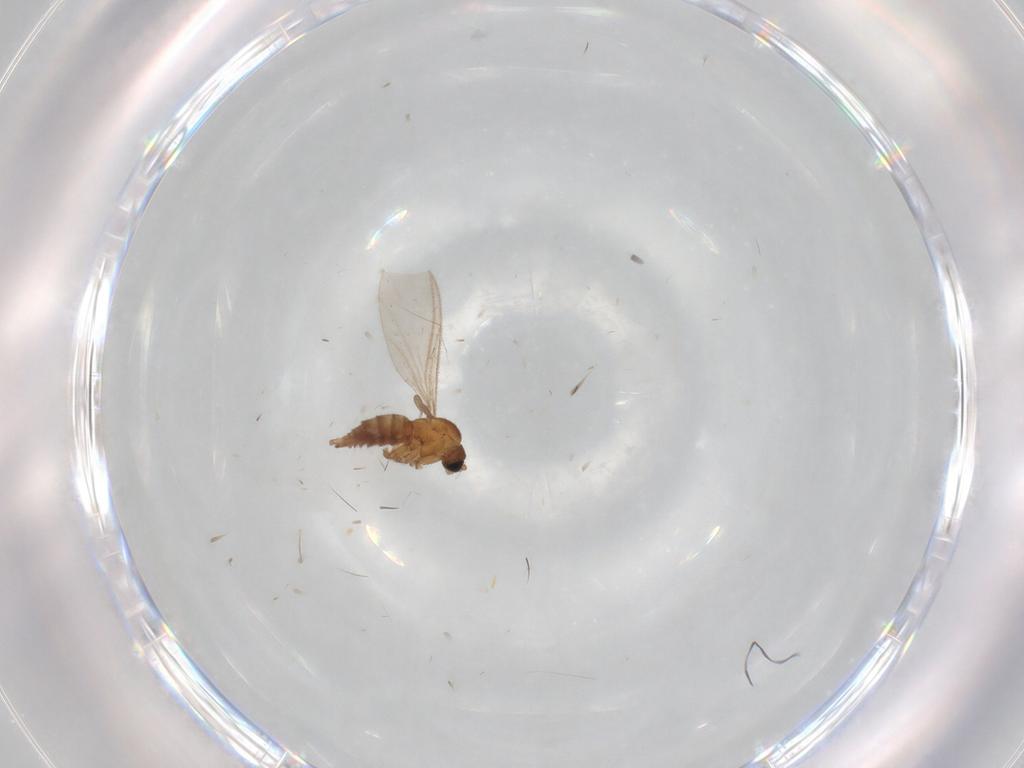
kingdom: Animalia
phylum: Arthropoda
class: Insecta
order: Diptera
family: Sciaridae
